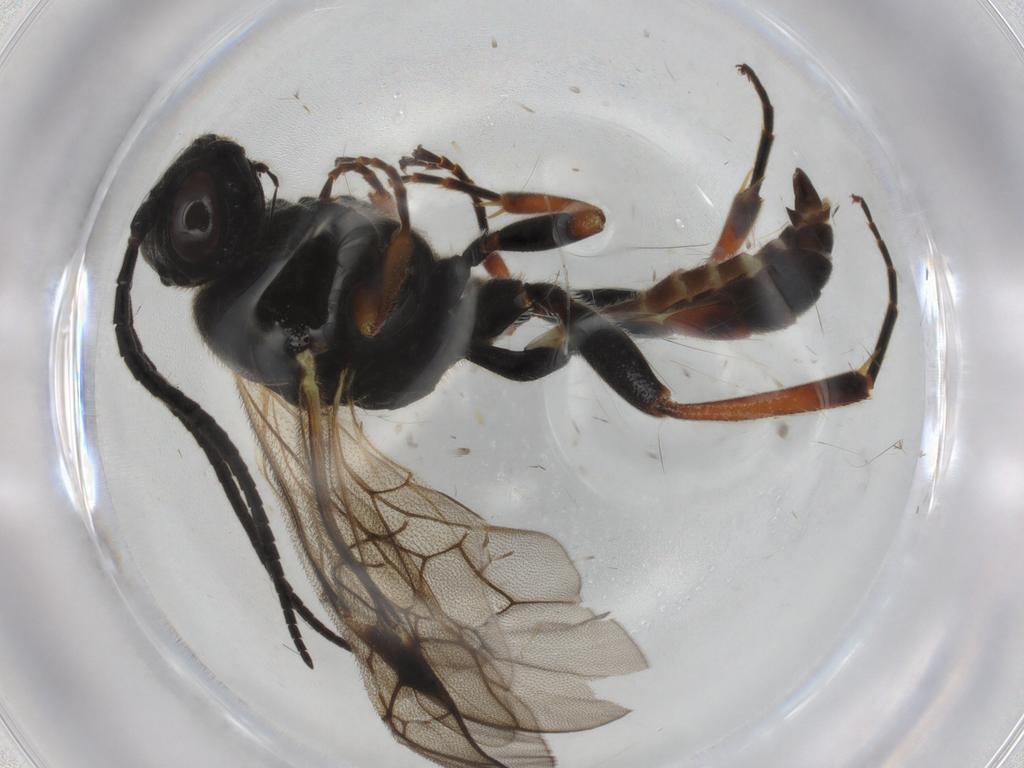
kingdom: Animalia
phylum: Arthropoda
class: Insecta
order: Hymenoptera
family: Ichneumonidae
